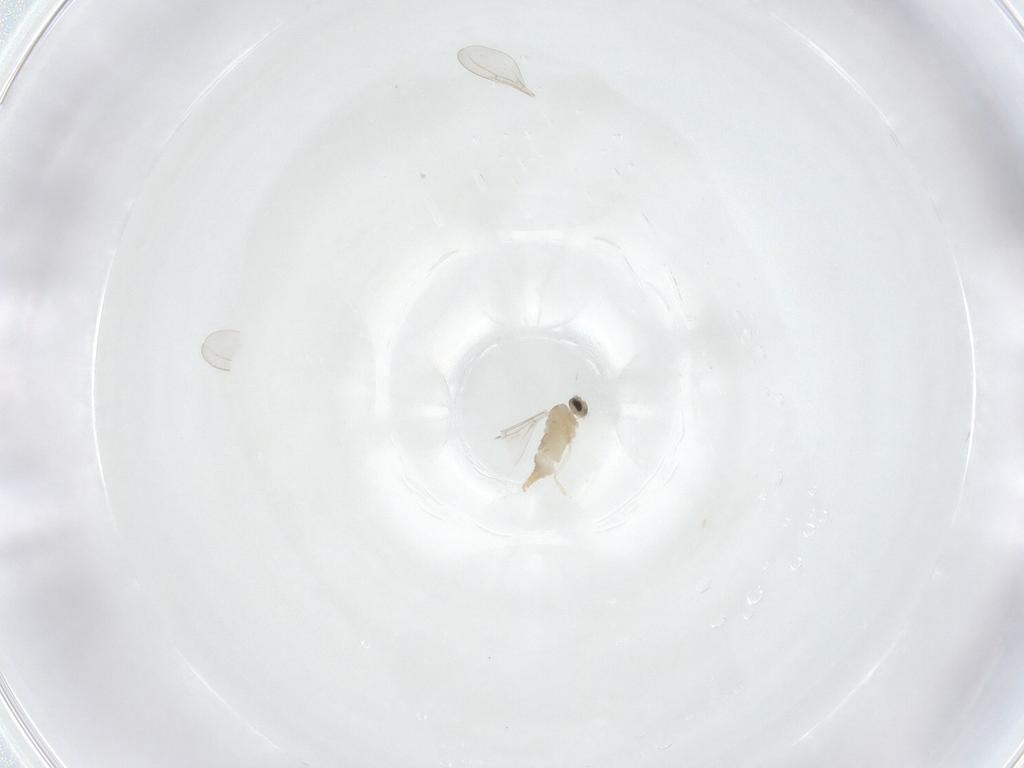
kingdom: Animalia
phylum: Arthropoda
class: Insecta
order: Diptera
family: Cecidomyiidae
